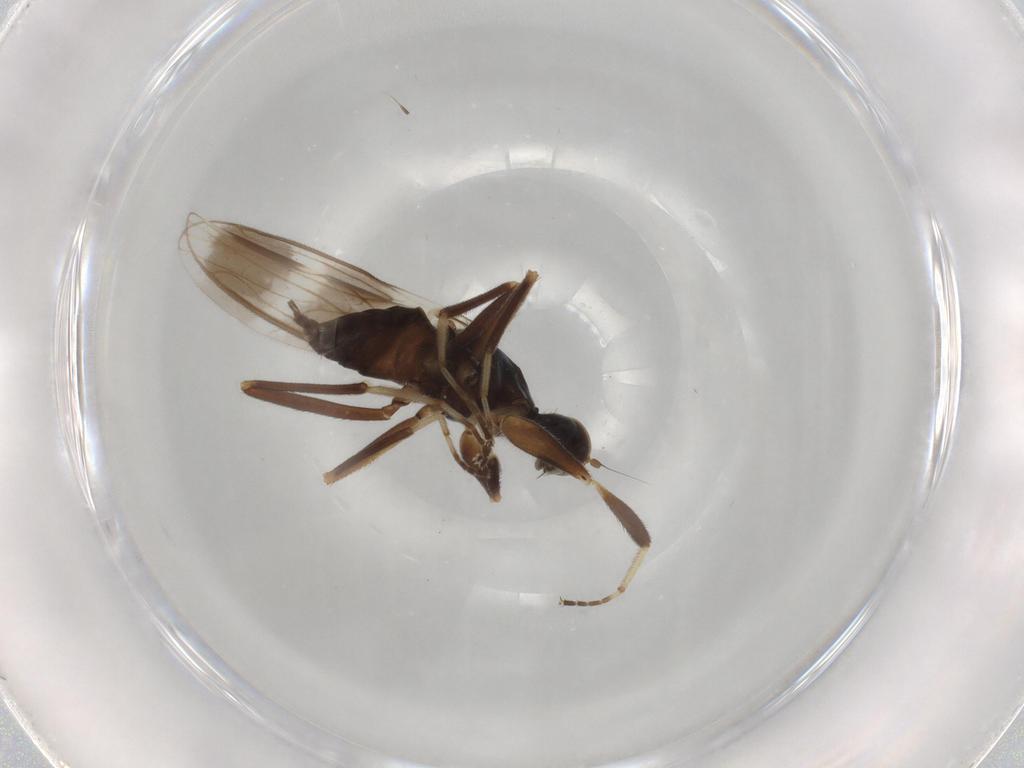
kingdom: Animalia
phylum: Arthropoda
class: Insecta
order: Diptera
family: Hybotidae
